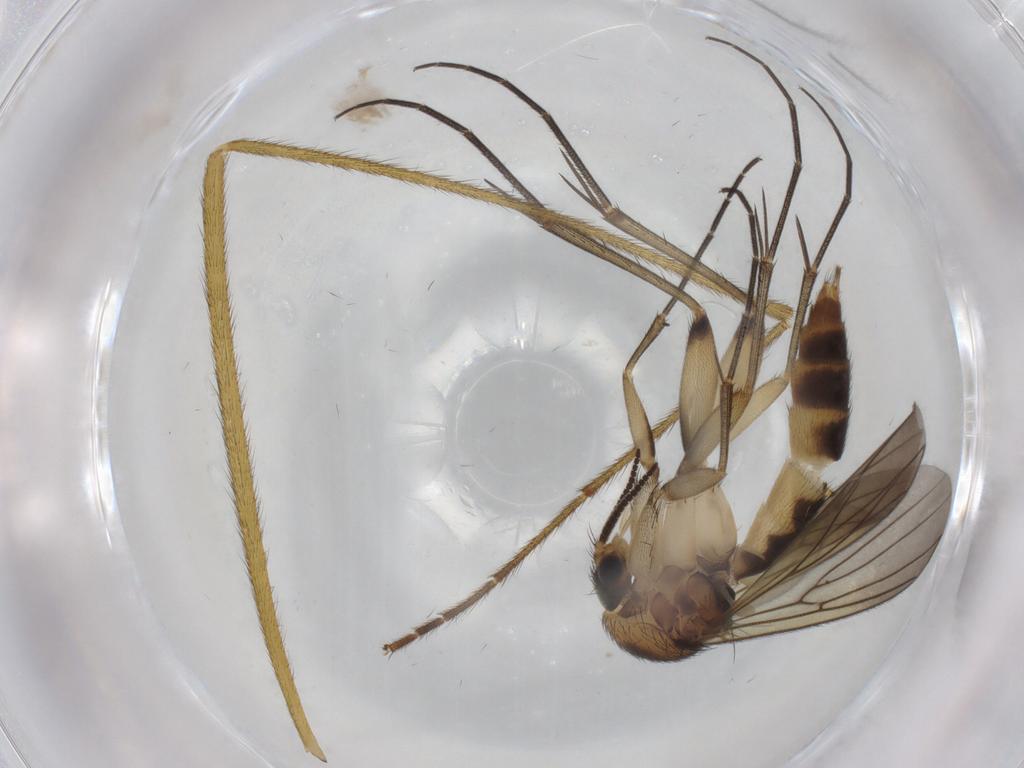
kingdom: Animalia
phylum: Arthropoda
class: Insecta
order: Diptera
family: Limoniidae
